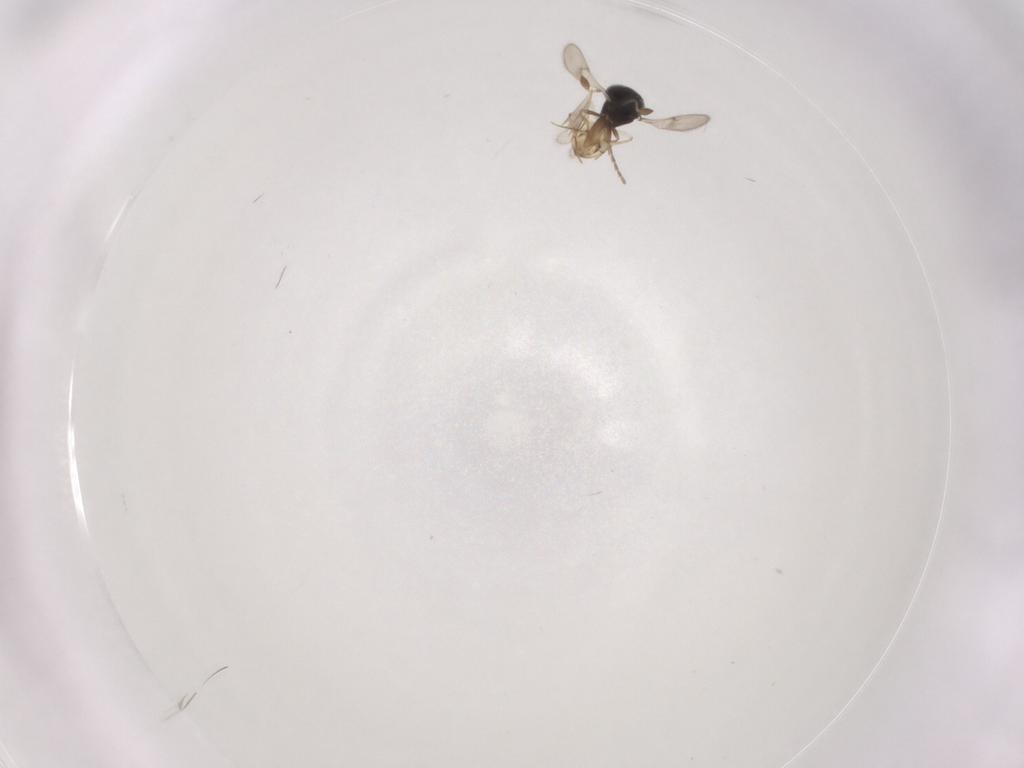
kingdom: Animalia
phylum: Arthropoda
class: Insecta
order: Hymenoptera
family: Scelionidae
